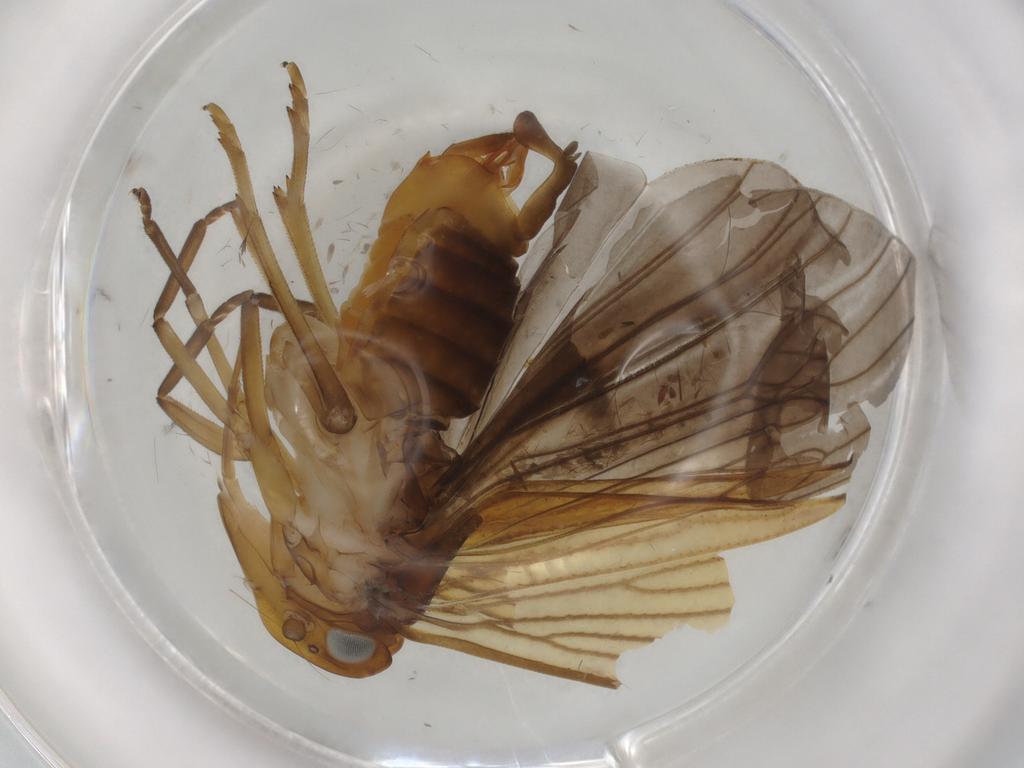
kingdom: Animalia
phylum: Arthropoda
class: Insecta
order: Hemiptera
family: Cixiidae
